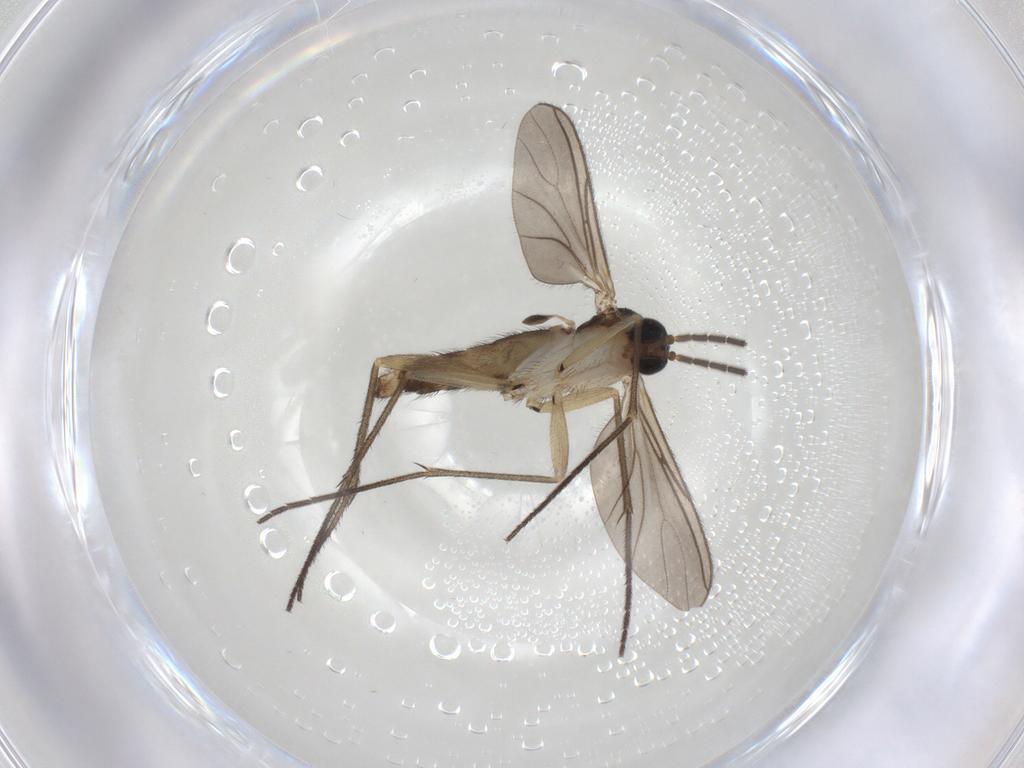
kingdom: Animalia
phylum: Arthropoda
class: Insecta
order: Diptera
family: Sciaridae
